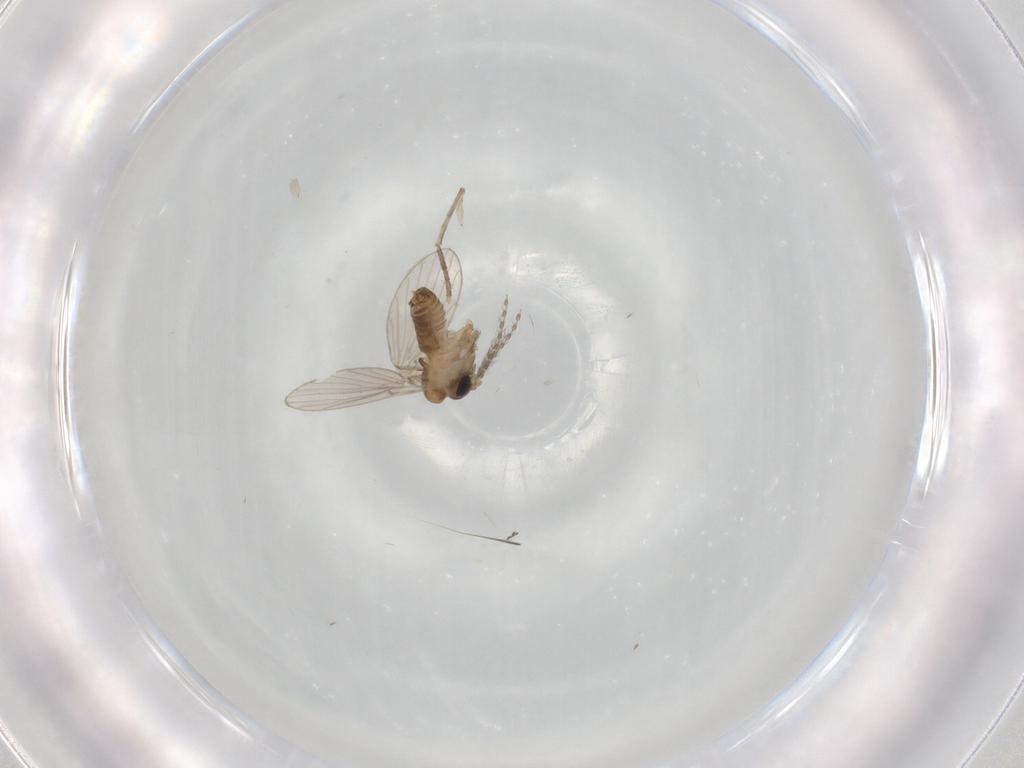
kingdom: Animalia
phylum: Arthropoda
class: Insecta
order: Diptera
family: Psychodidae
